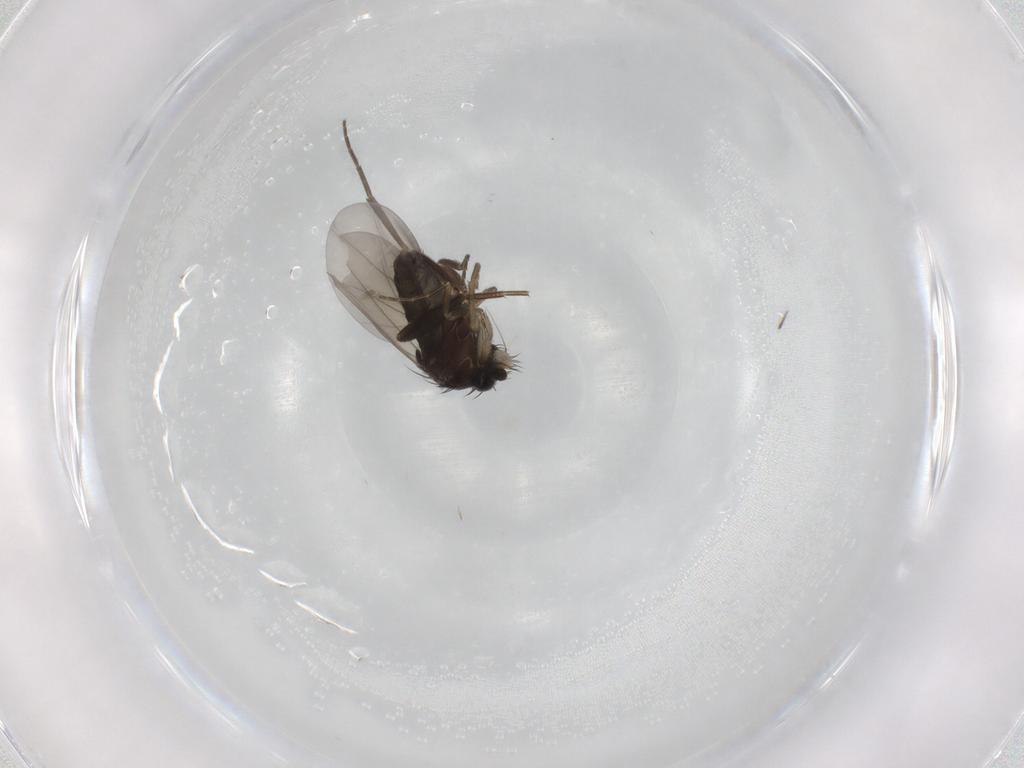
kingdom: Animalia
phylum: Arthropoda
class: Insecta
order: Diptera
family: Phoridae
